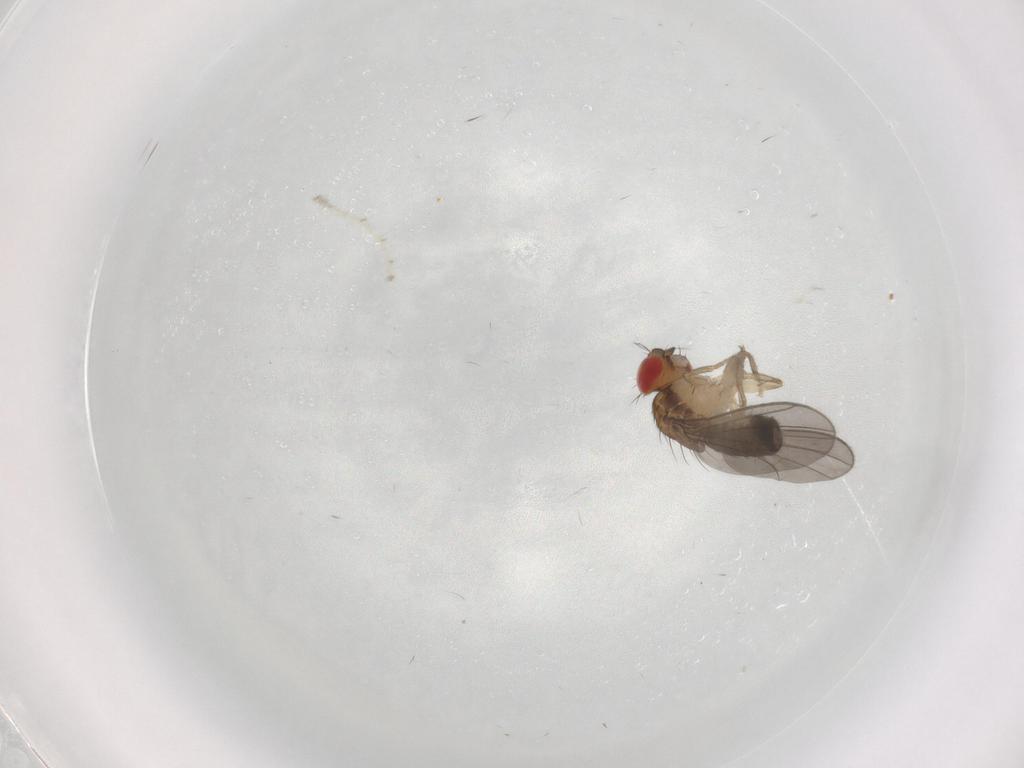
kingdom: Animalia
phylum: Arthropoda
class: Insecta
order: Diptera
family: Drosophilidae
